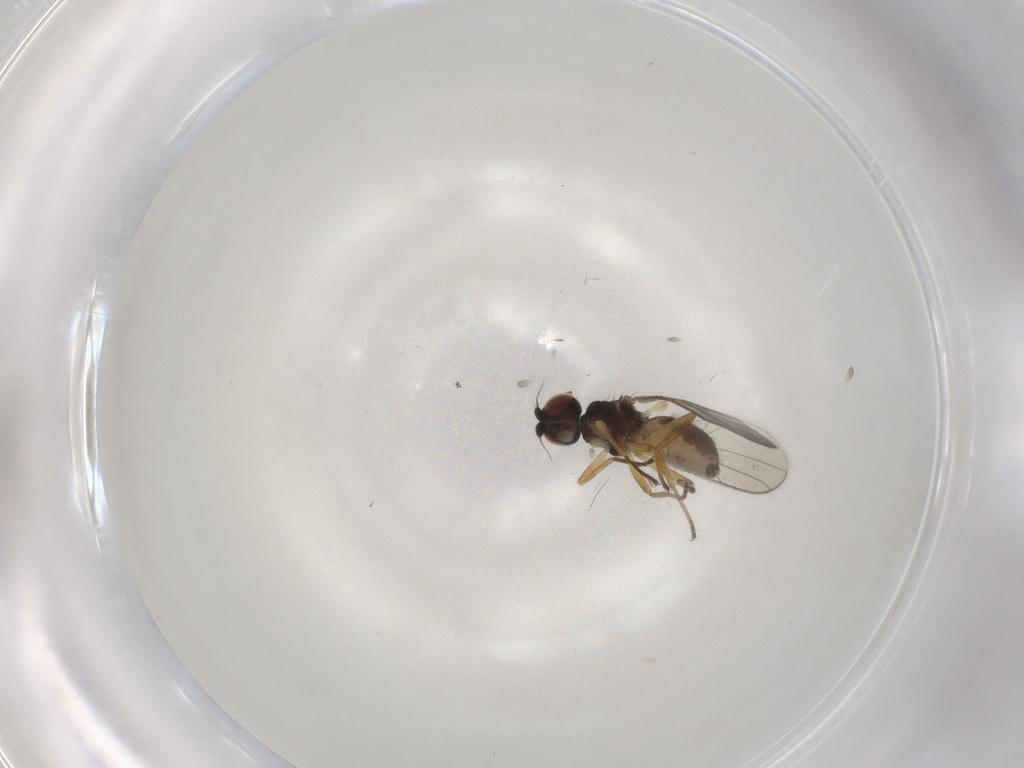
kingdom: Animalia
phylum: Arthropoda
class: Insecta
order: Diptera
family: Chloropidae
